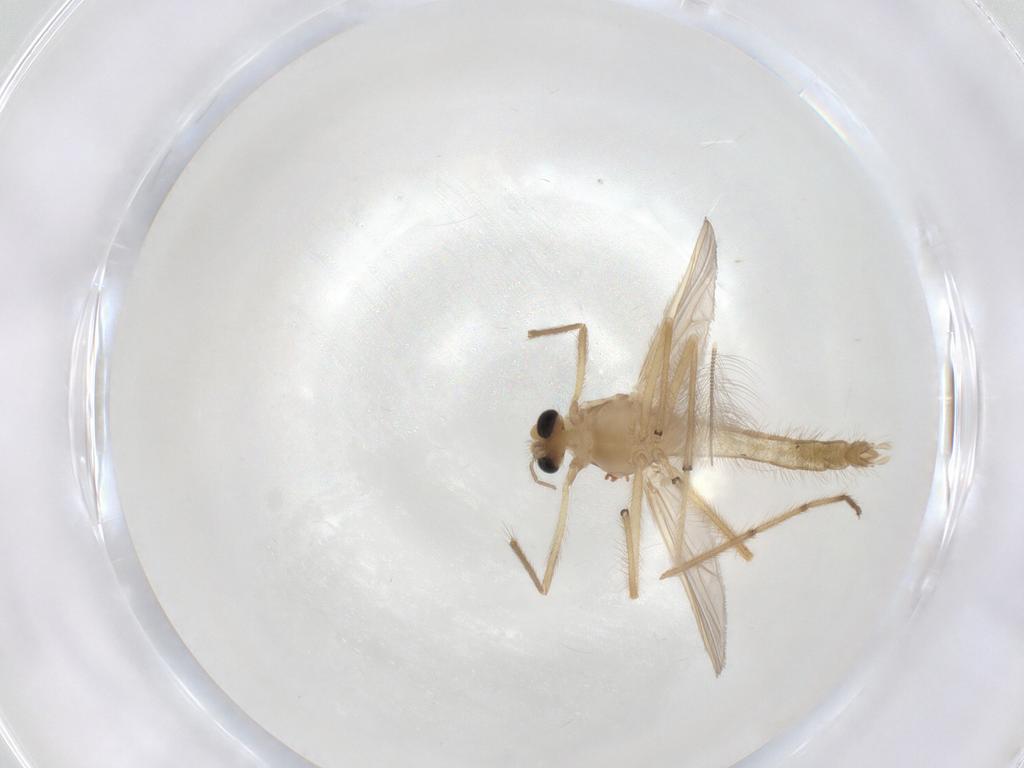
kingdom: Animalia
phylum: Arthropoda
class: Insecta
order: Diptera
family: Chironomidae
